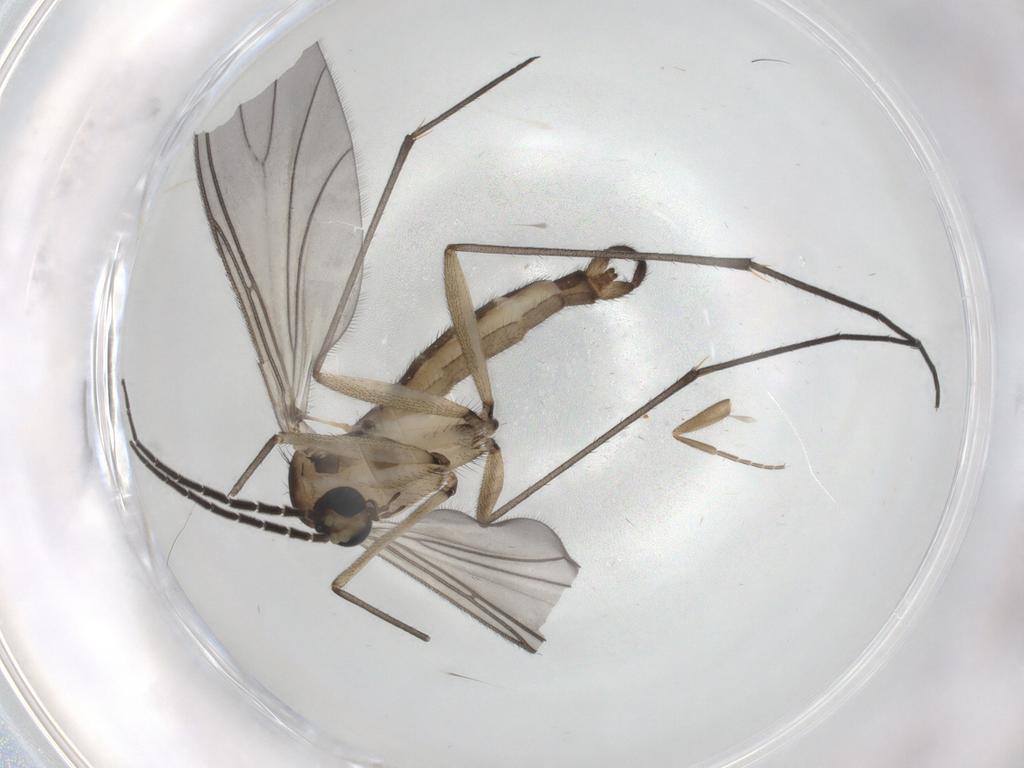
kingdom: Animalia
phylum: Arthropoda
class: Insecta
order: Diptera
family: Sciaridae
